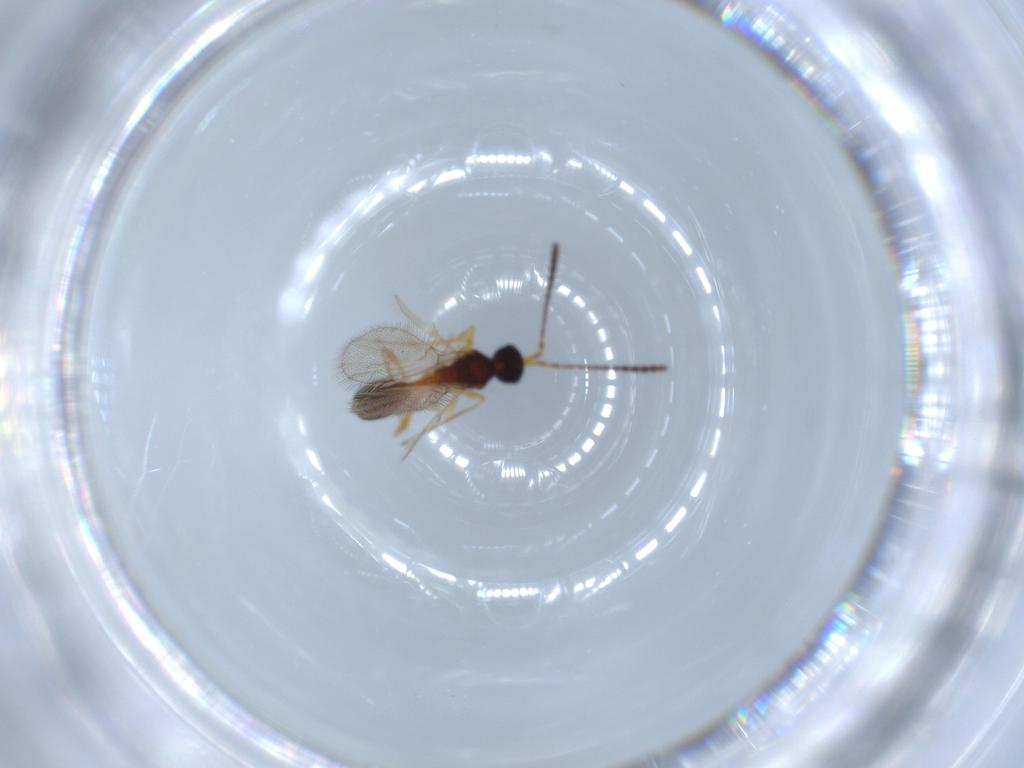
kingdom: Animalia
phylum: Arthropoda
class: Insecta
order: Hymenoptera
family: Diapriidae
